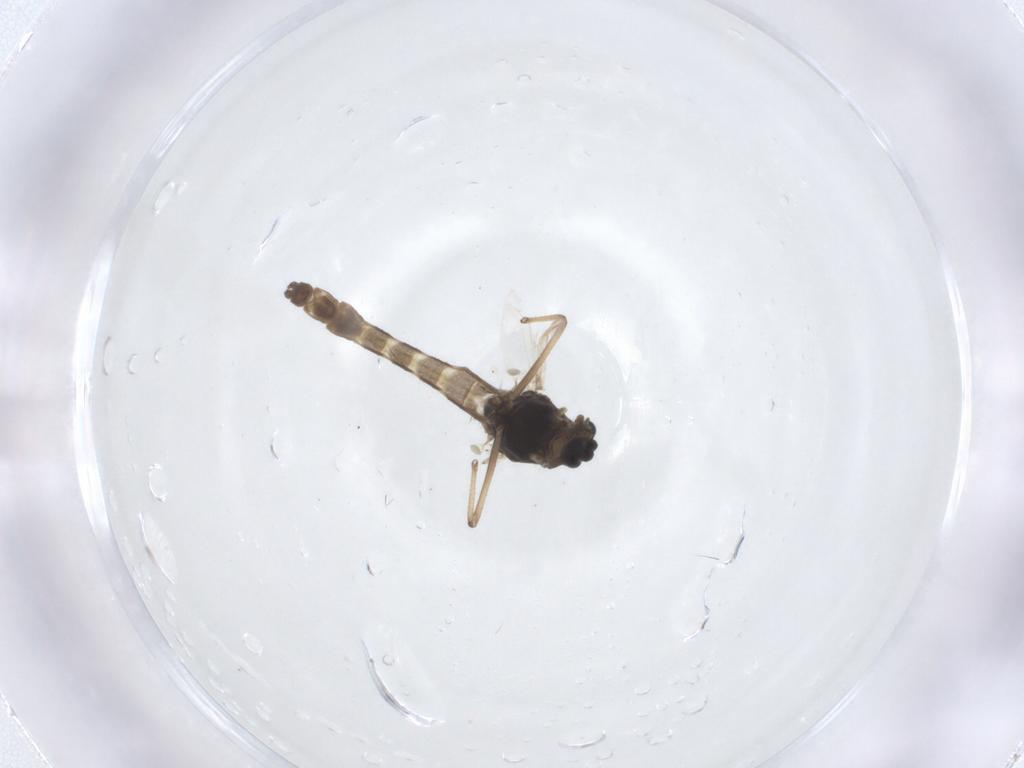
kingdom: Animalia
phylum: Arthropoda
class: Insecta
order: Diptera
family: Chironomidae
